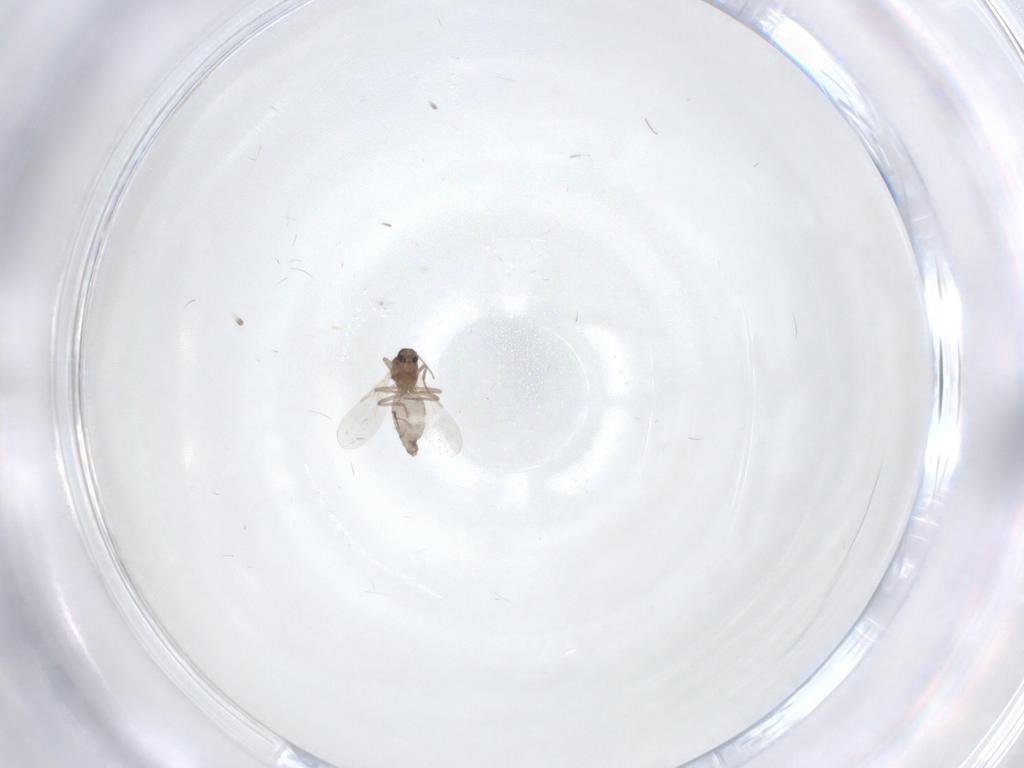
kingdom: Animalia
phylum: Arthropoda
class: Insecta
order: Diptera
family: Ceratopogonidae
